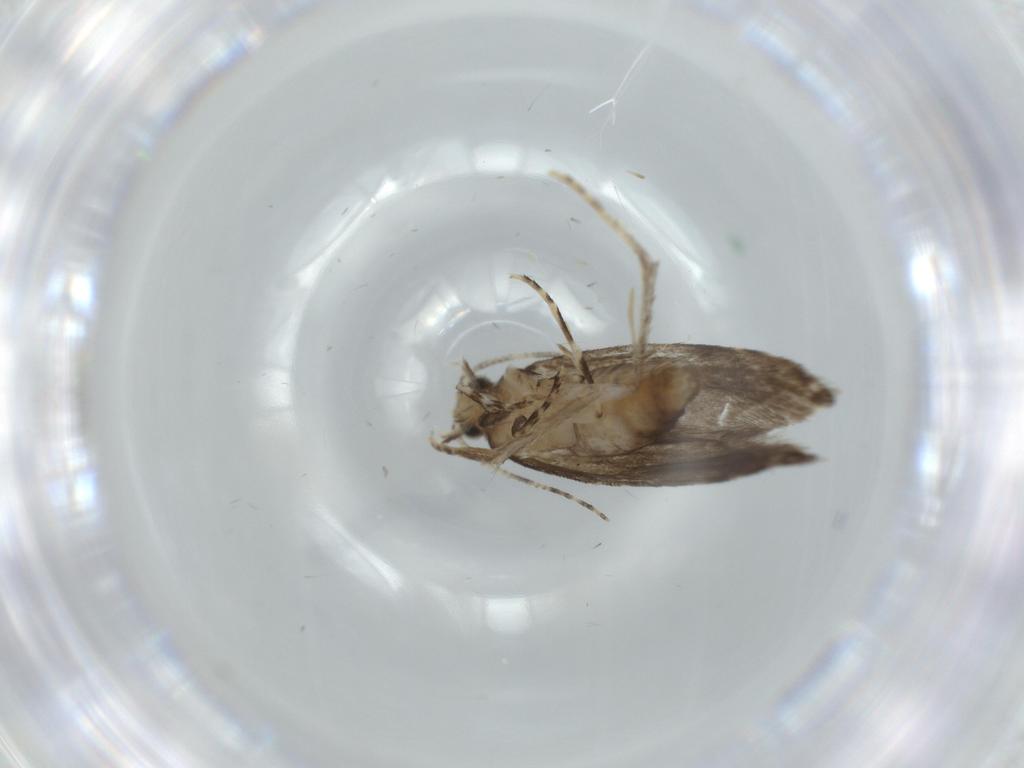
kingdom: Animalia
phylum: Arthropoda
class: Insecta
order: Lepidoptera
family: Tineidae
